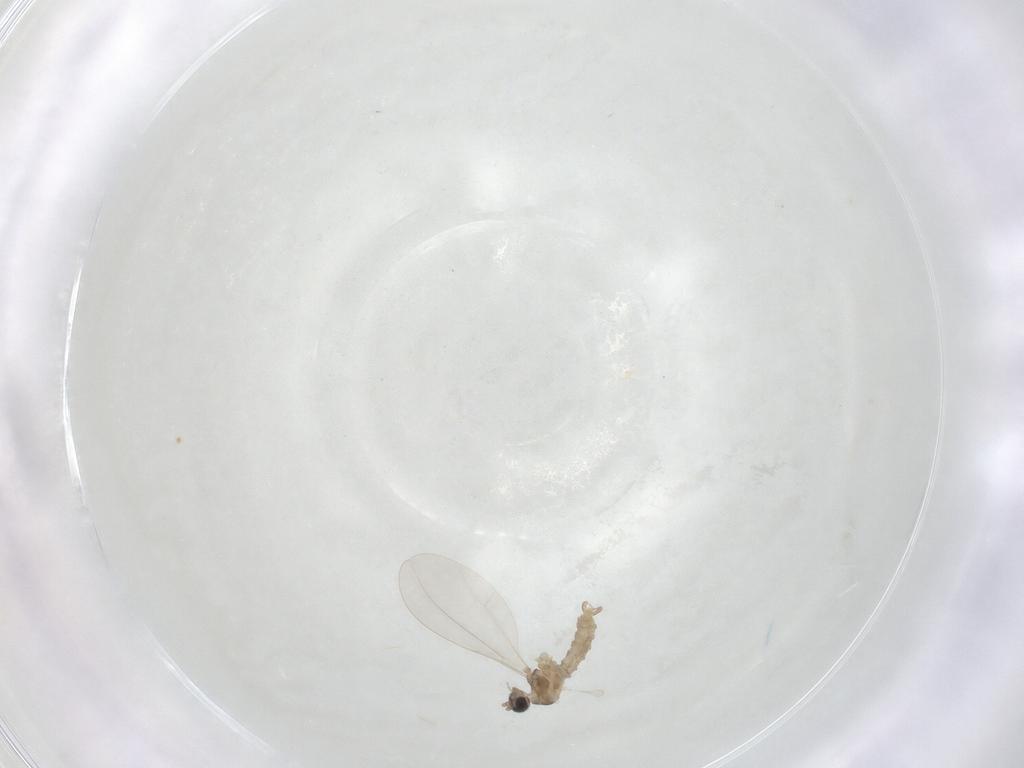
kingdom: Animalia
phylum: Arthropoda
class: Insecta
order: Diptera
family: Cecidomyiidae
